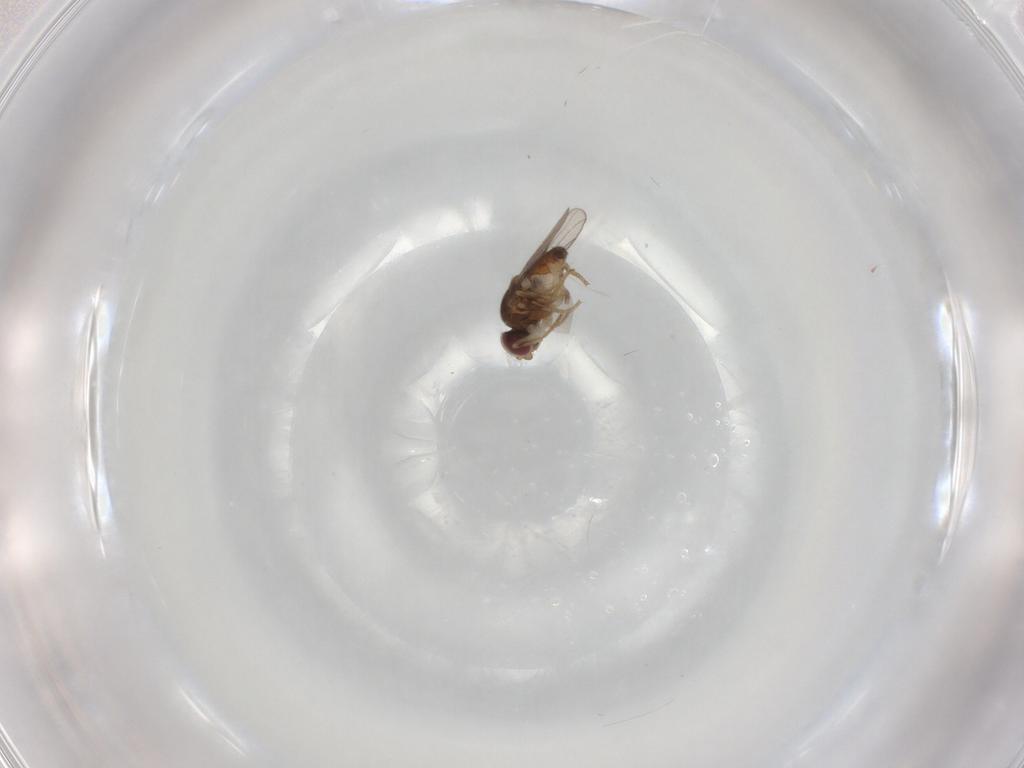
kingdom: Animalia
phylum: Arthropoda
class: Insecta
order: Diptera
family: Chloropidae
